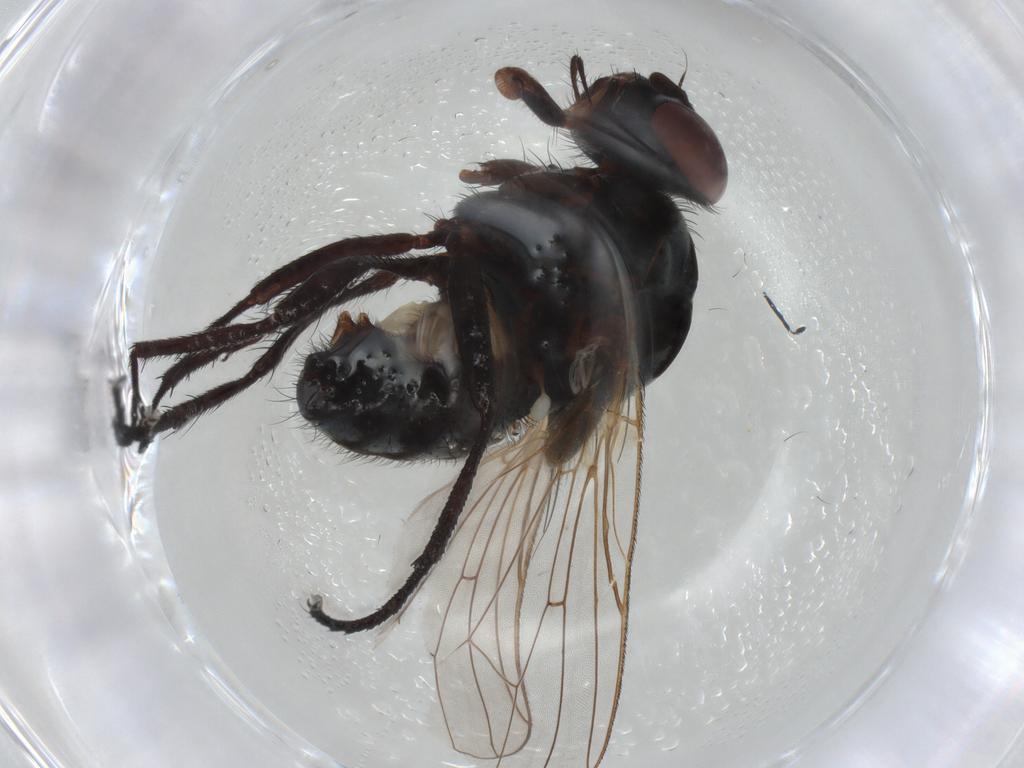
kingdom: Animalia
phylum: Arthropoda
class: Insecta
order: Diptera
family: Anthomyiidae
